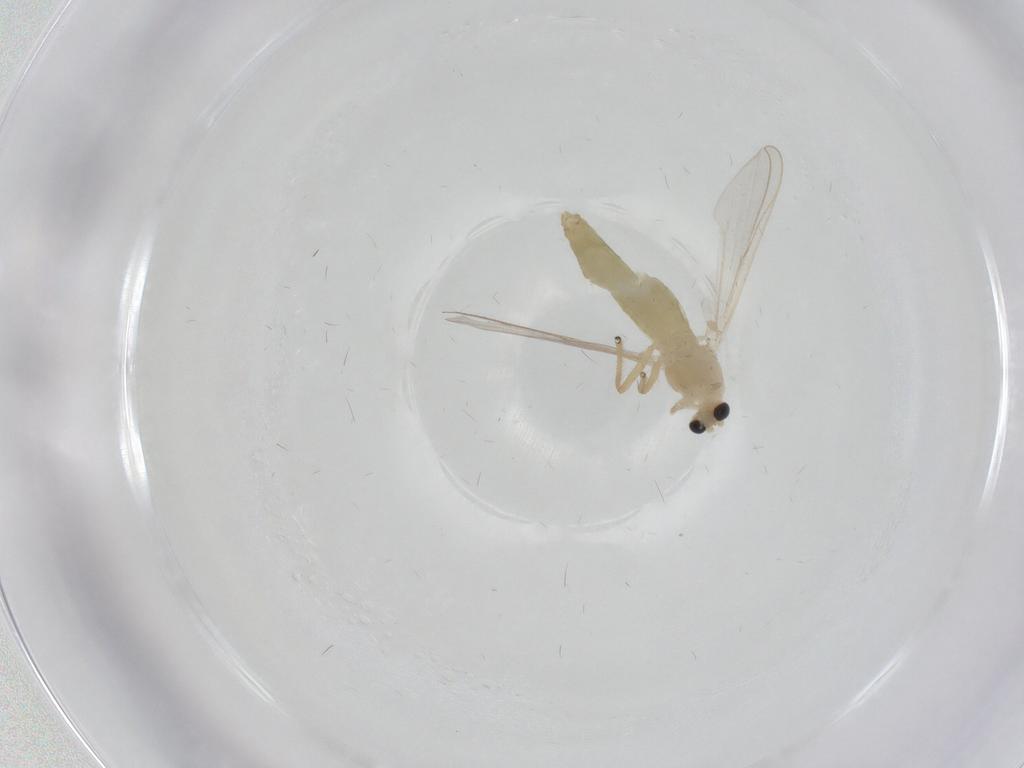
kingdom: Animalia
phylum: Arthropoda
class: Insecta
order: Diptera
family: Chironomidae
